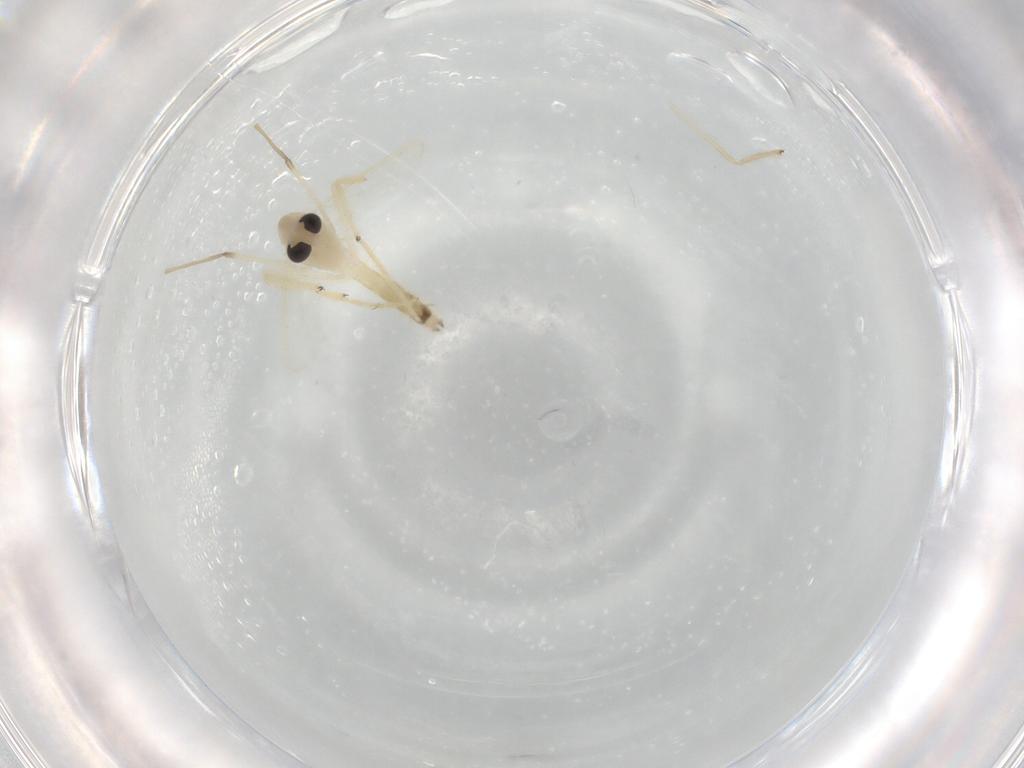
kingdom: Animalia
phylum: Arthropoda
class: Insecta
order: Diptera
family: Chironomidae
